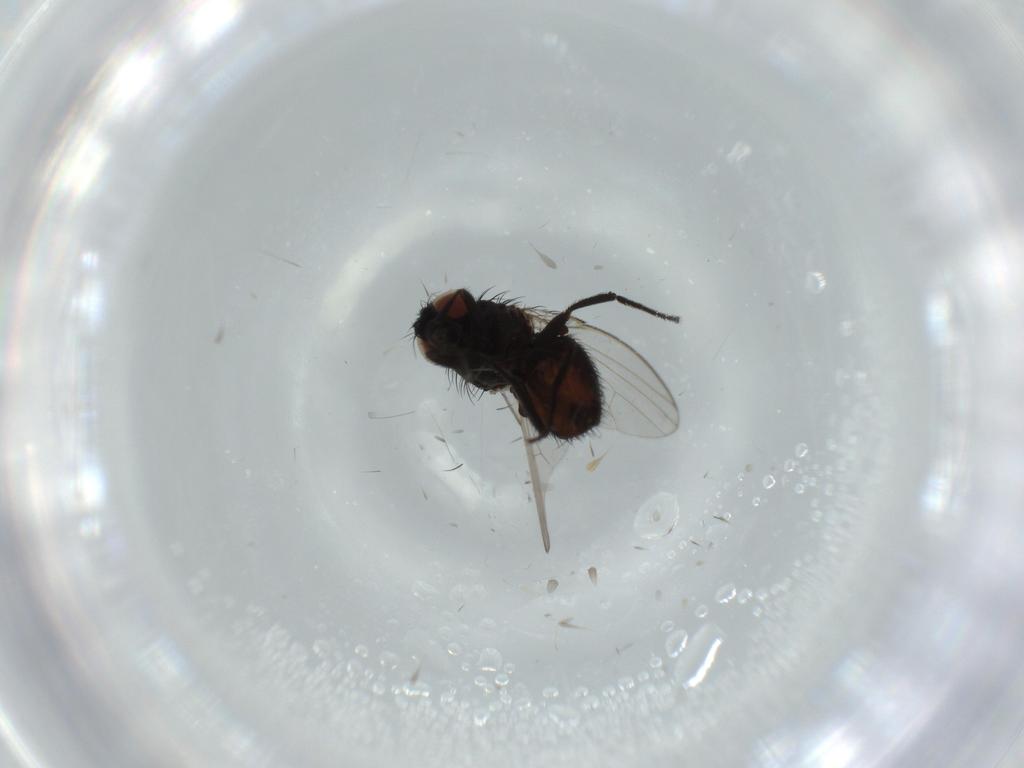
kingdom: Animalia
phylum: Arthropoda
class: Insecta
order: Diptera
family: Milichiidae
